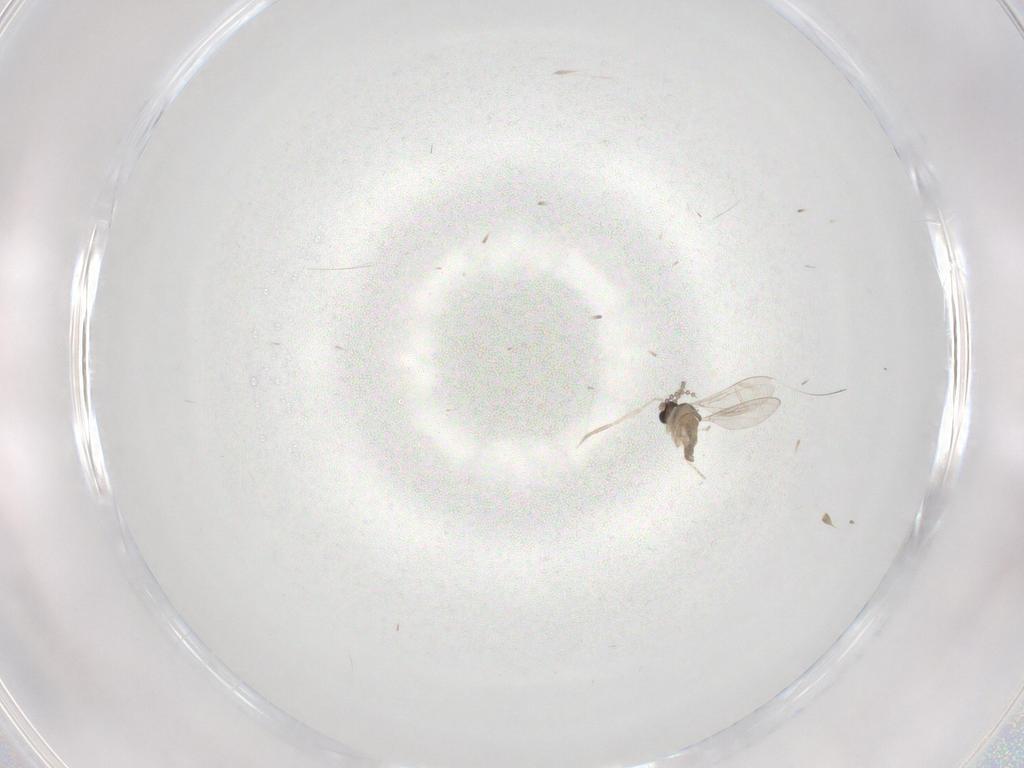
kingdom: Animalia
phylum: Arthropoda
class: Insecta
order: Diptera
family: Cecidomyiidae
